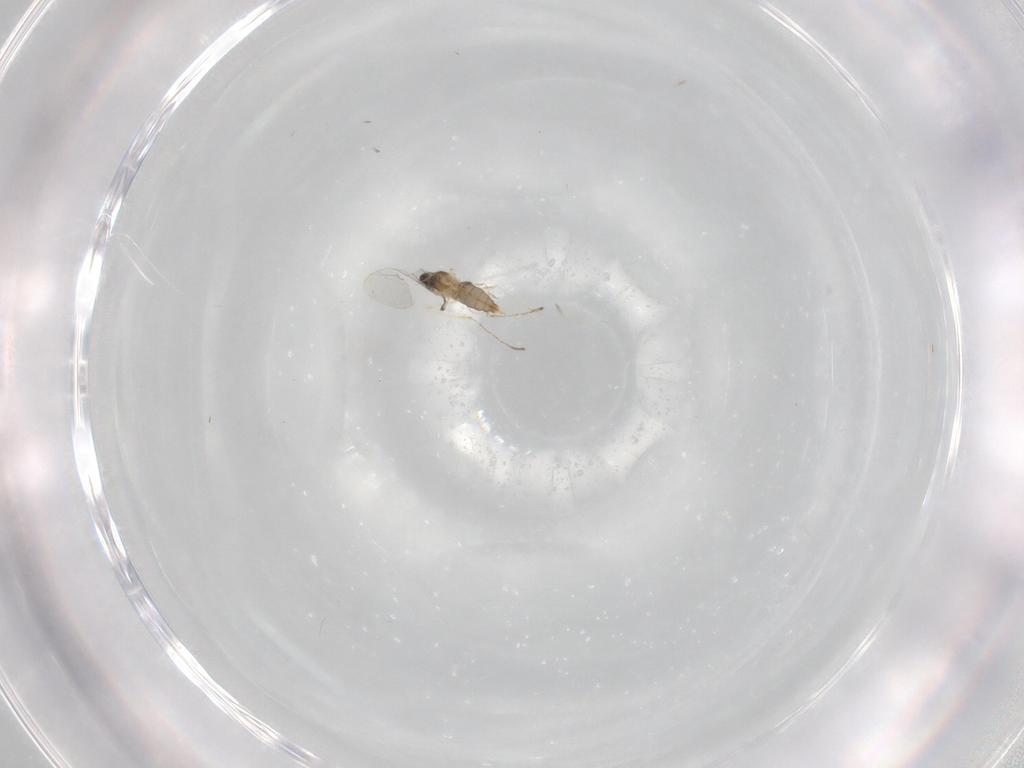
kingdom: Animalia
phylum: Arthropoda
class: Insecta
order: Diptera
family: Cecidomyiidae
